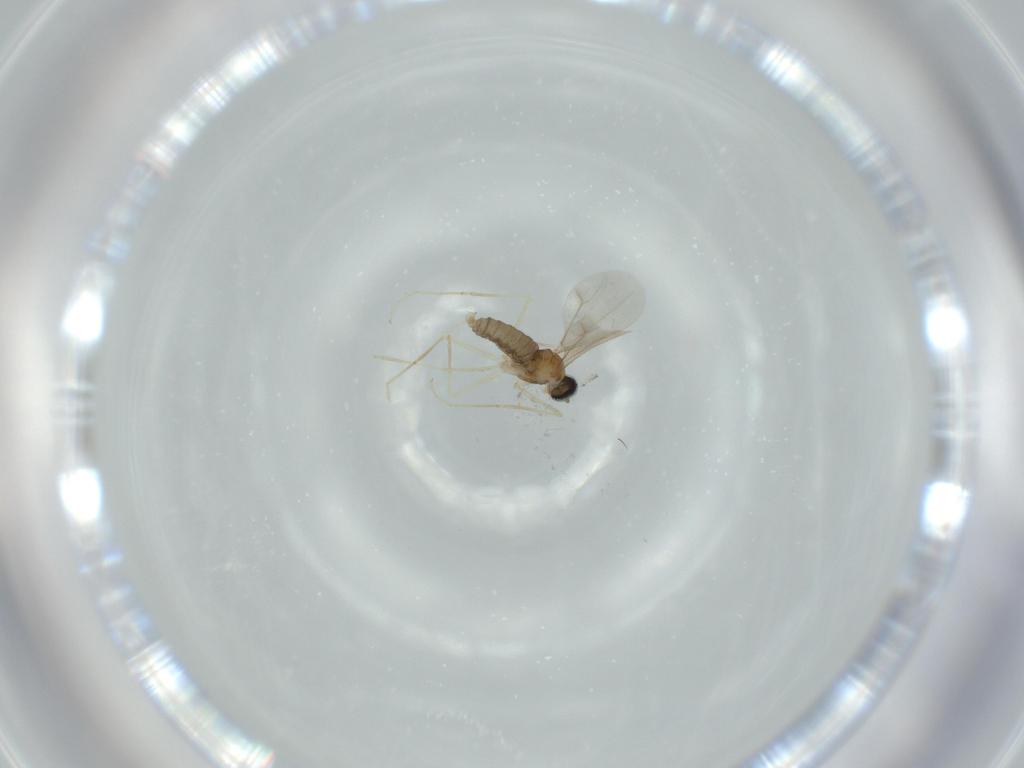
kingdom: Animalia
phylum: Arthropoda
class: Insecta
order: Diptera
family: Cecidomyiidae
